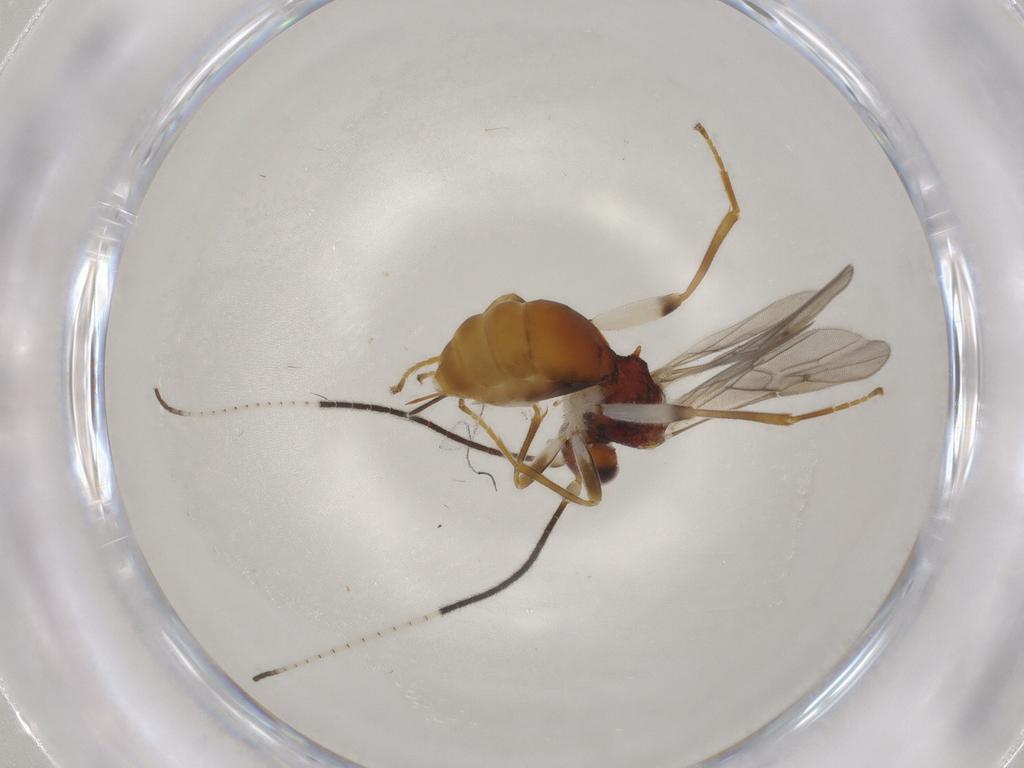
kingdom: Animalia
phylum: Arthropoda
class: Insecta
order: Hymenoptera
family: Braconidae
